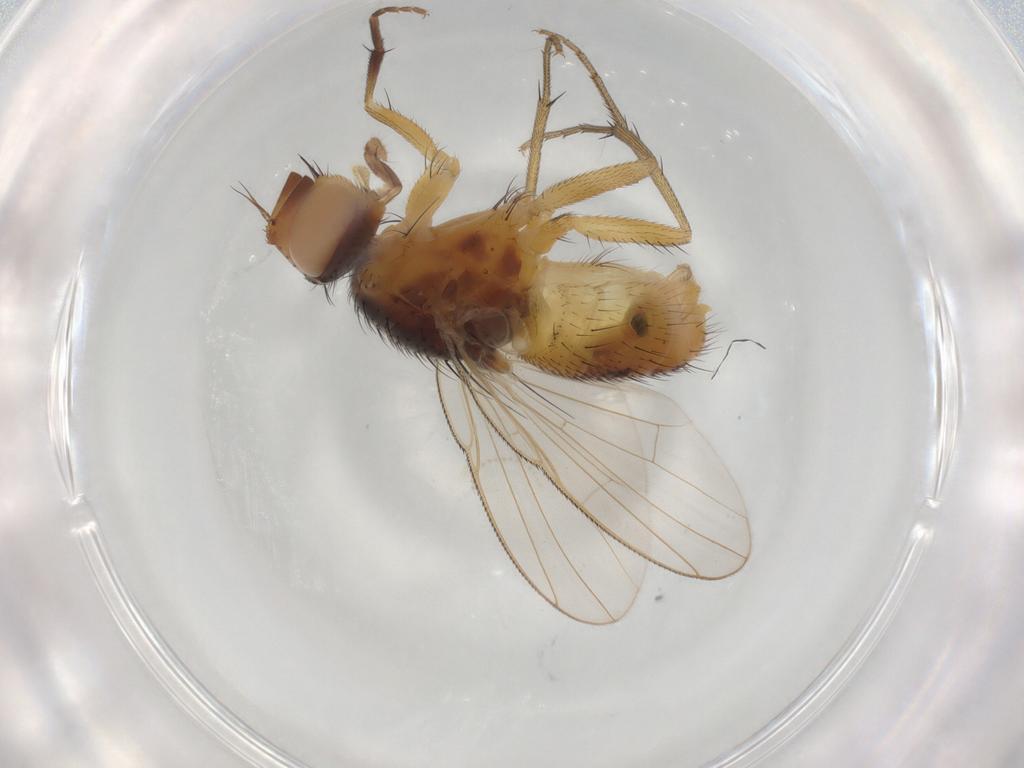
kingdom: Animalia
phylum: Arthropoda
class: Insecta
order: Diptera
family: Muscidae
